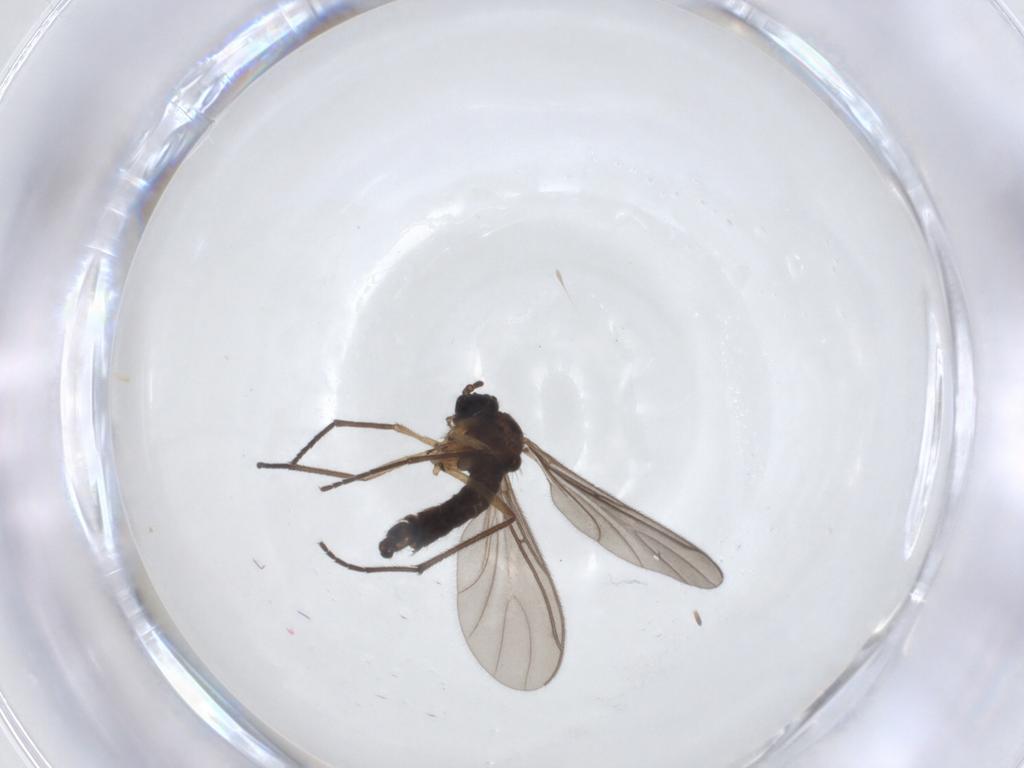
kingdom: Animalia
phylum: Arthropoda
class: Insecta
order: Diptera
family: Sciaridae
